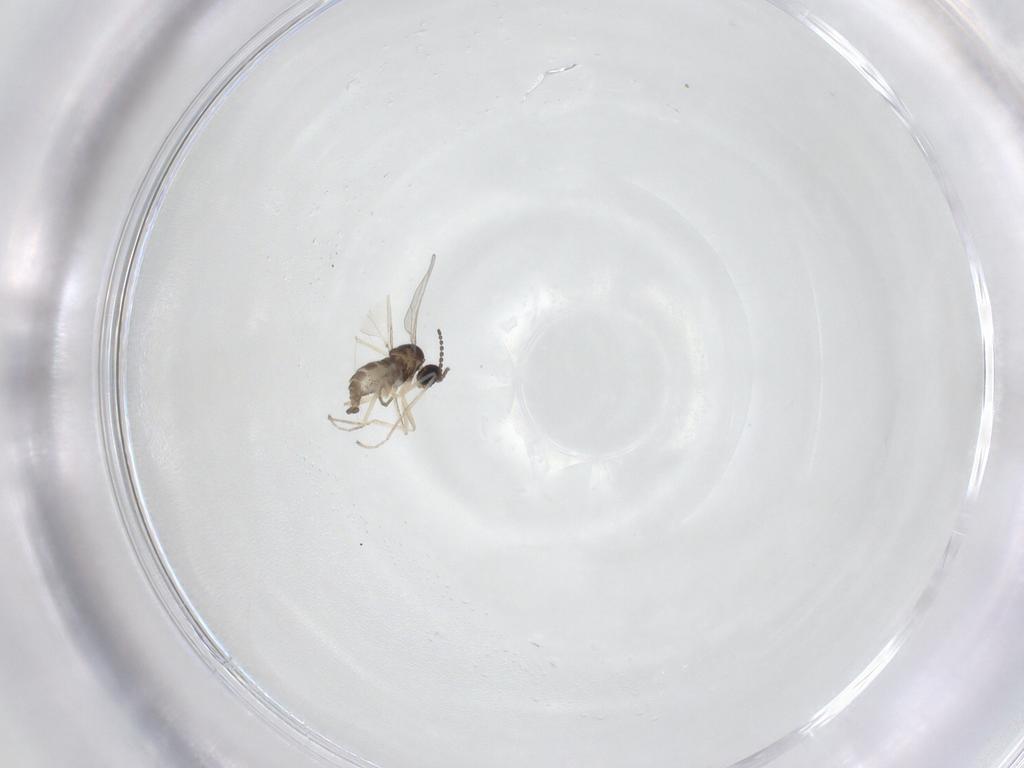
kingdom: Animalia
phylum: Arthropoda
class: Insecta
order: Diptera
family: Cecidomyiidae
